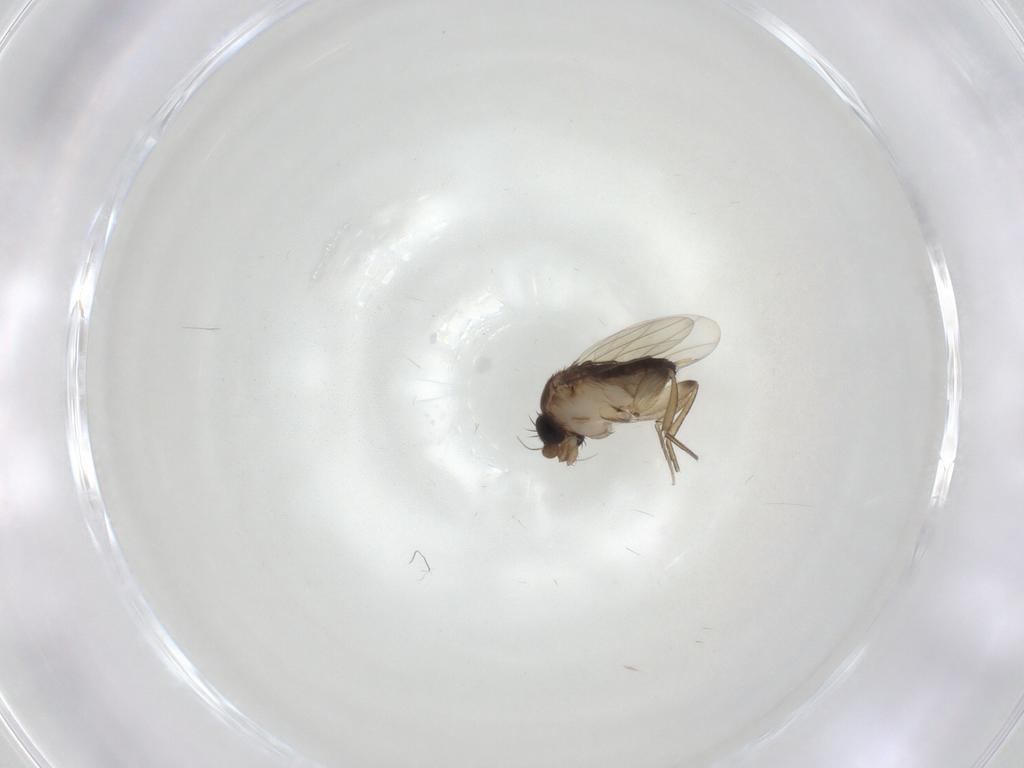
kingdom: Animalia
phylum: Arthropoda
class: Insecta
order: Diptera
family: Phoridae
